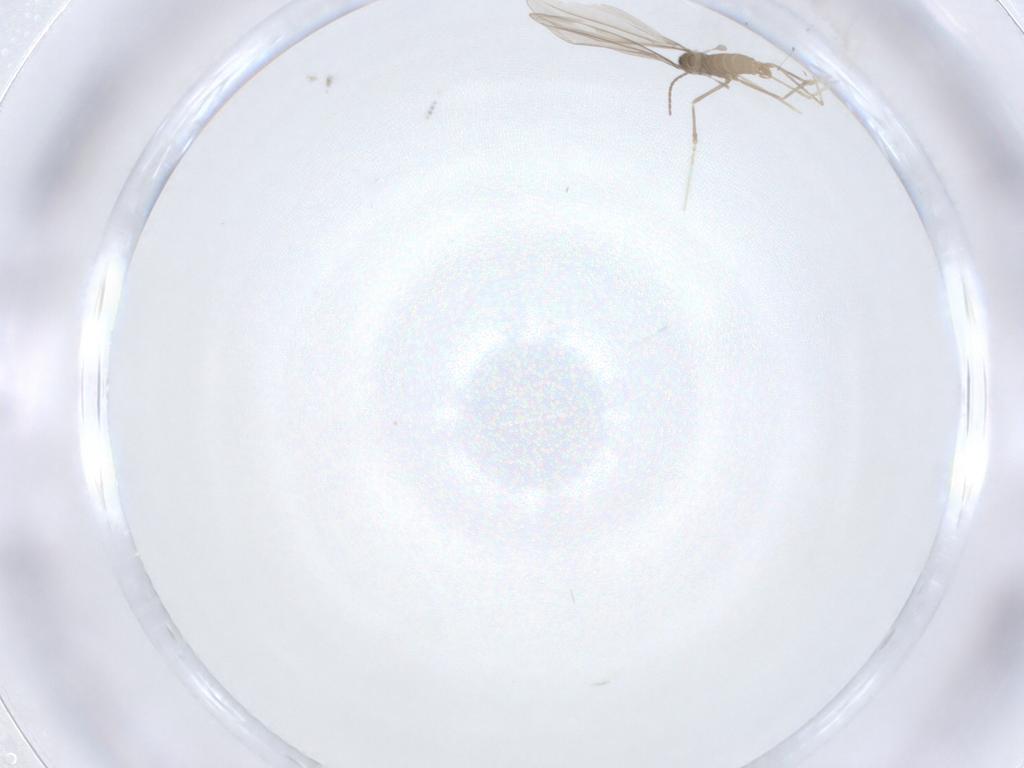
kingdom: Animalia
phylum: Arthropoda
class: Insecta
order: Diptera
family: Cecidomyiidae
